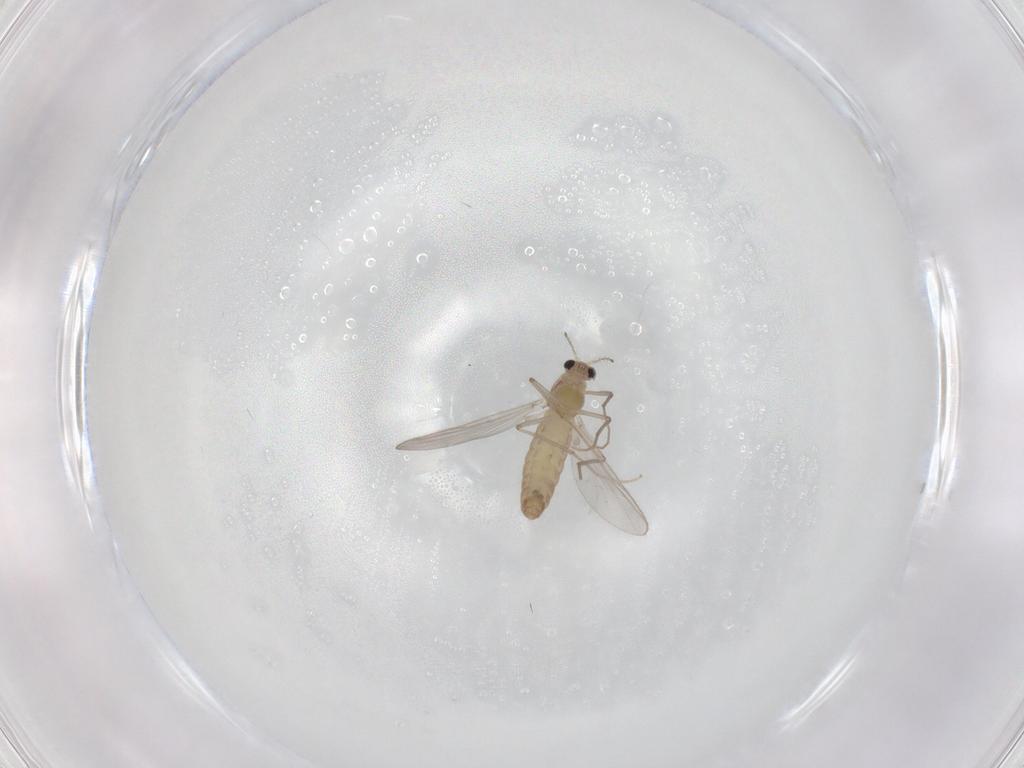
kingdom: Animalia
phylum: Arthropoda
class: Insecta
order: Diptera
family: Chironomidae
